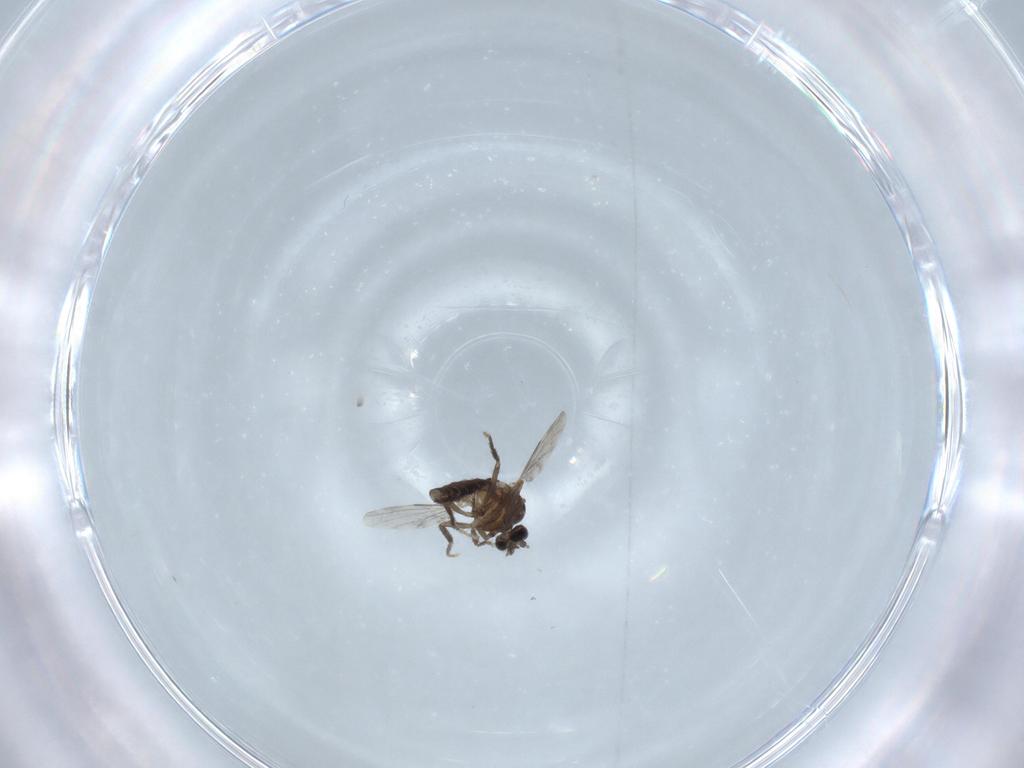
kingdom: Animalia
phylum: Arthropoda
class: Insecta
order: Diptera
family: Ceratopogonidae
